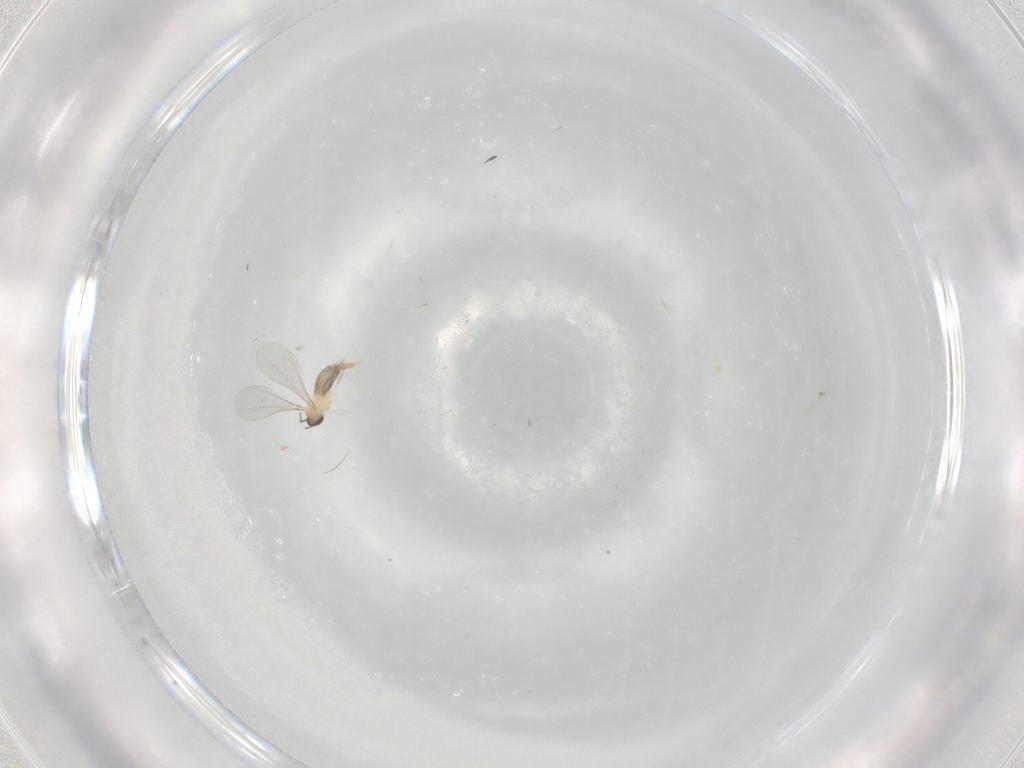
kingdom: Animalia
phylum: Arthropoda
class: Insecta
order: Diptera
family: Cecidomyiidae
